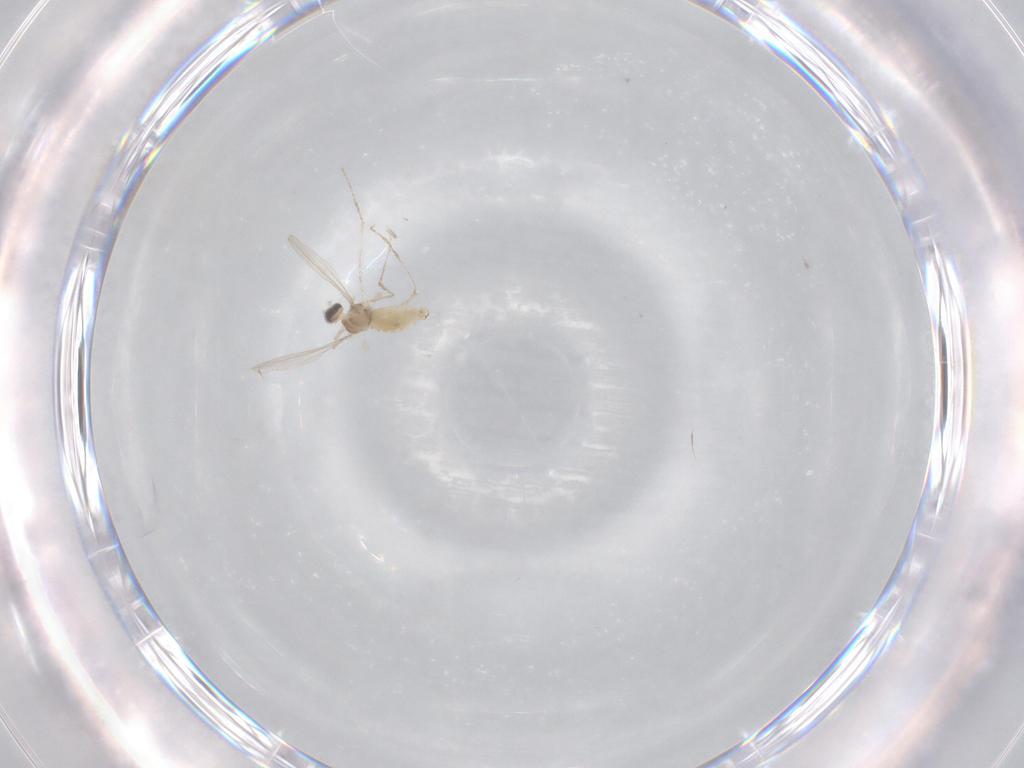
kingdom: Animalia
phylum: Arthropoda
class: Insecta
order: Diptera
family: Cecidomyiidae
